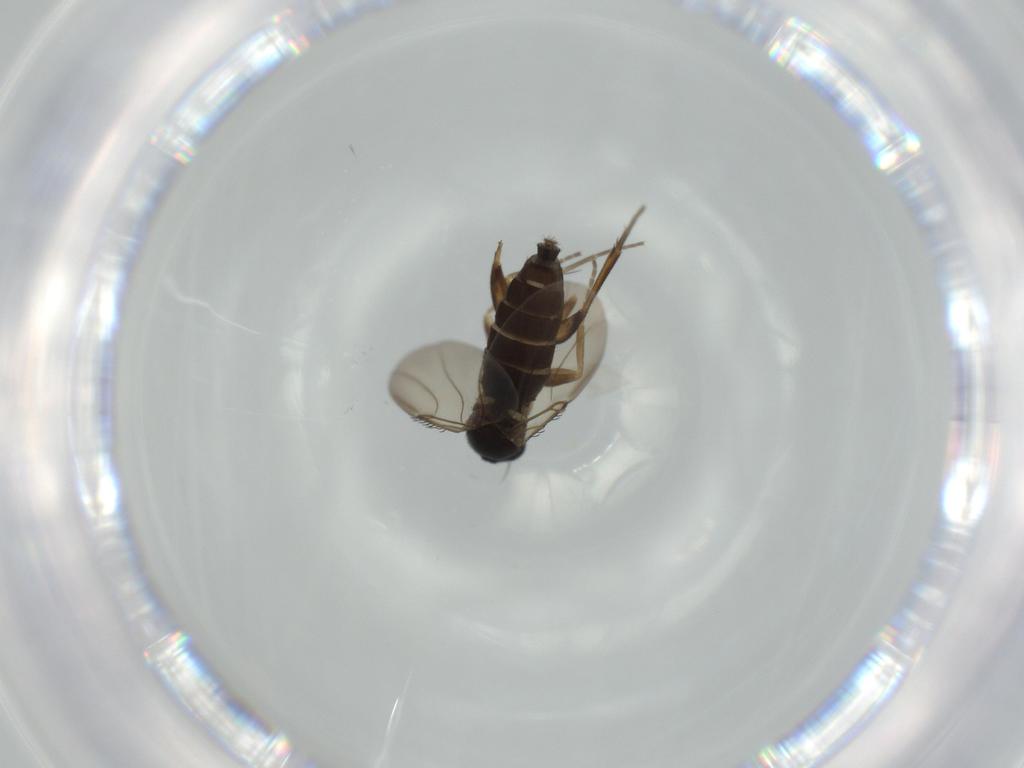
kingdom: Animalia
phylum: Arthropoda
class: Insecta
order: Diptera
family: Phoridae
